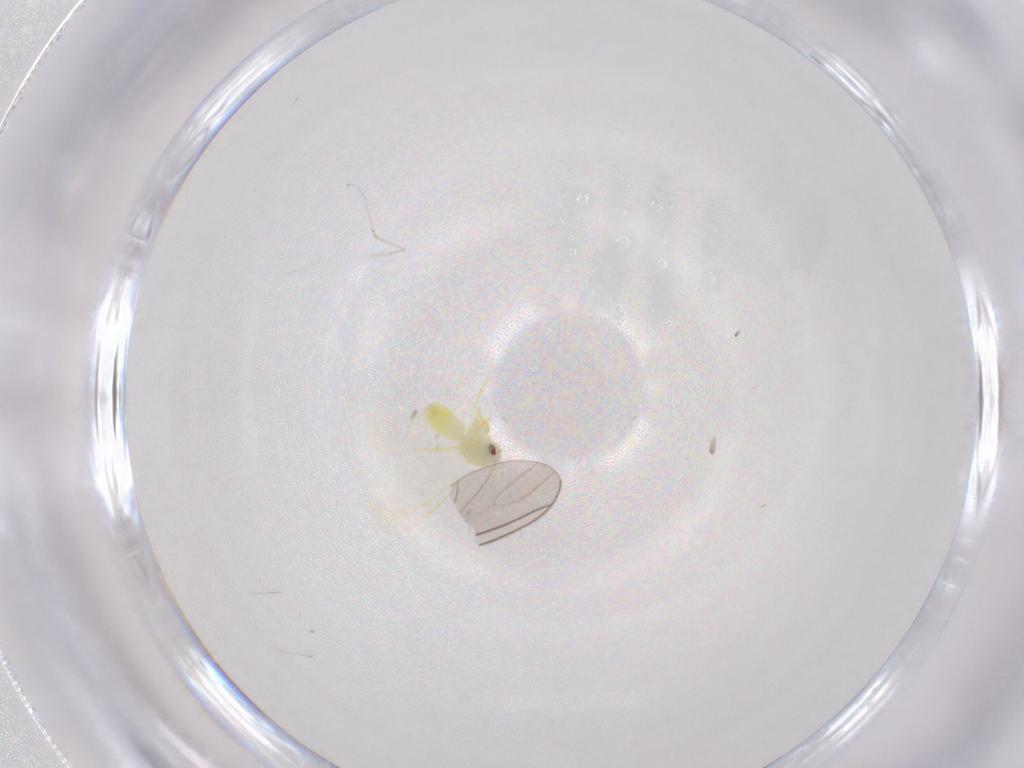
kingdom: Animalia
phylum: Arthropoda
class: Insecta
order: Hemiptera
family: Aleyrodidae
